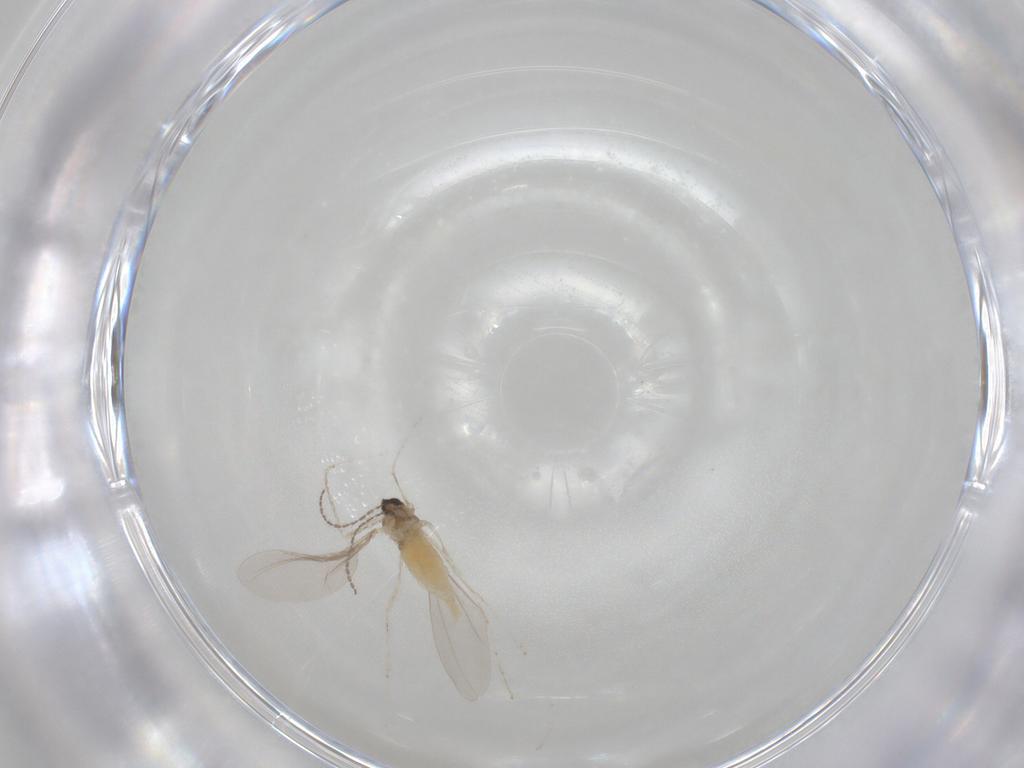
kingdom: Animalia
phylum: Arthropoda
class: Insecta
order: Diptera
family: Cecidomyiidae
